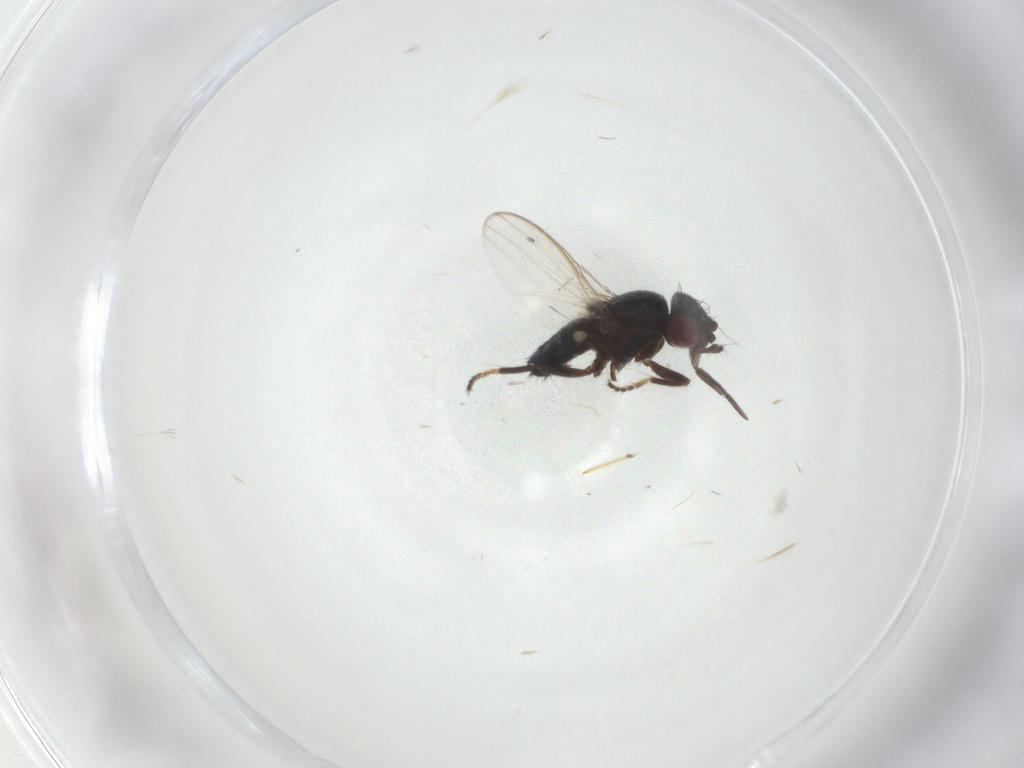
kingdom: Animalia
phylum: Arthropoda
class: Insecta
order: Diptera
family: Milichiidae
